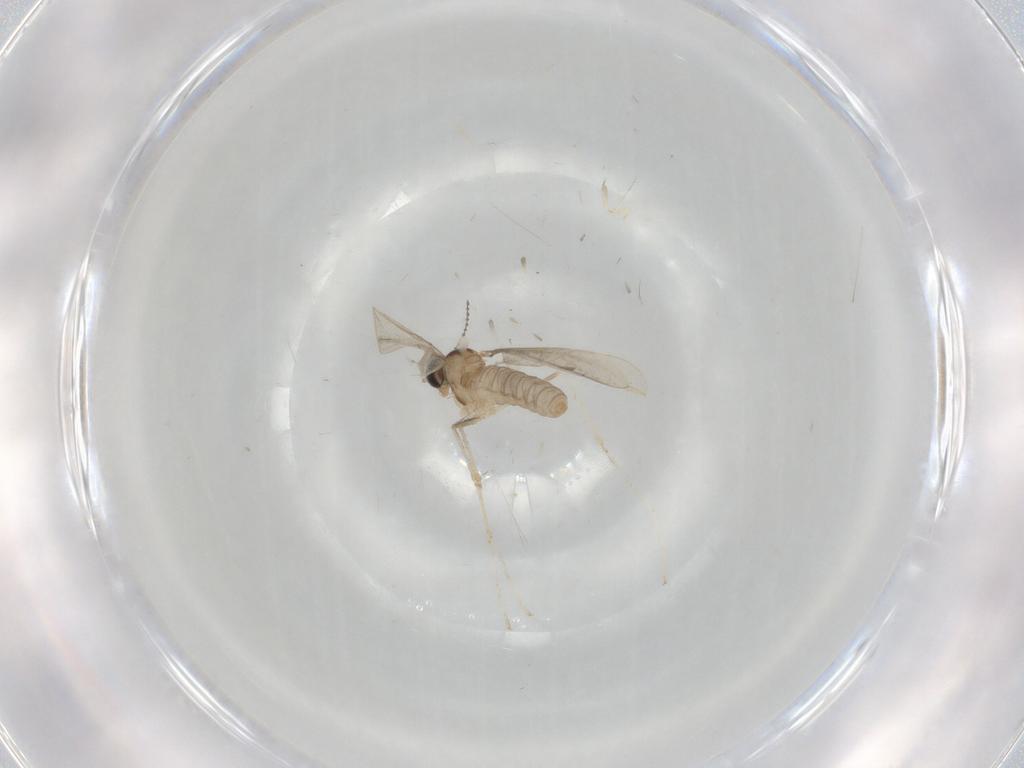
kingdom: Animalia
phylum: Arthropoda
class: Insecta
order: Diptera
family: Cecidomyiidae
